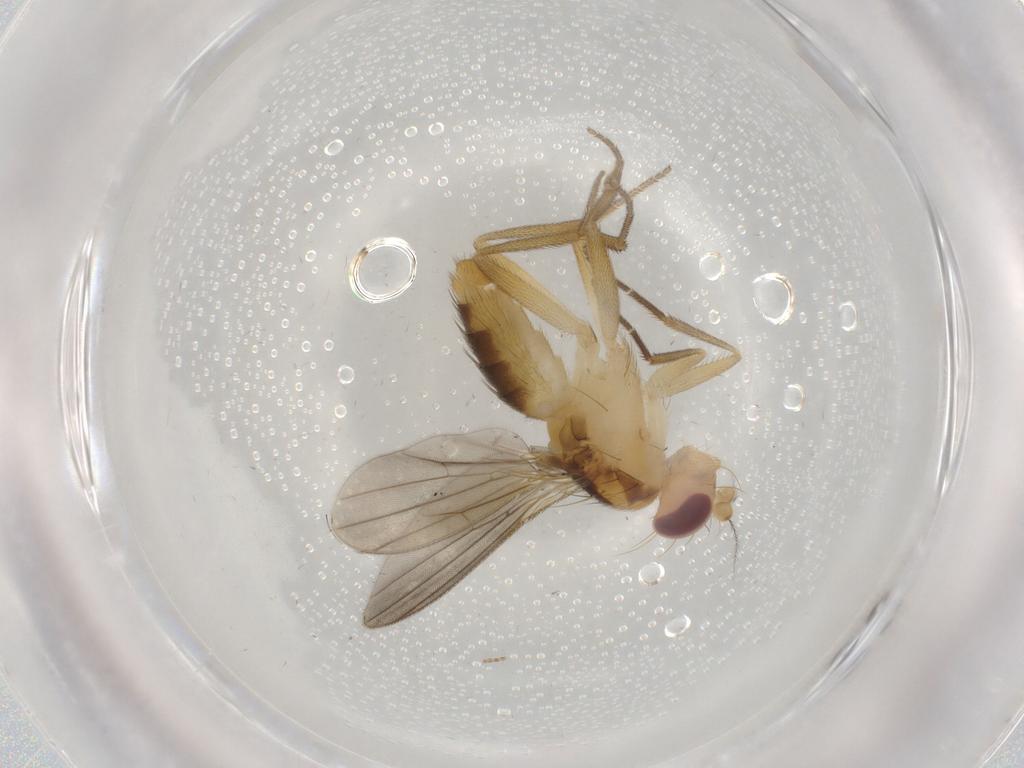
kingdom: Animalia
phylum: Arthropoda
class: Insecta
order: Diptera
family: Clusiidae
